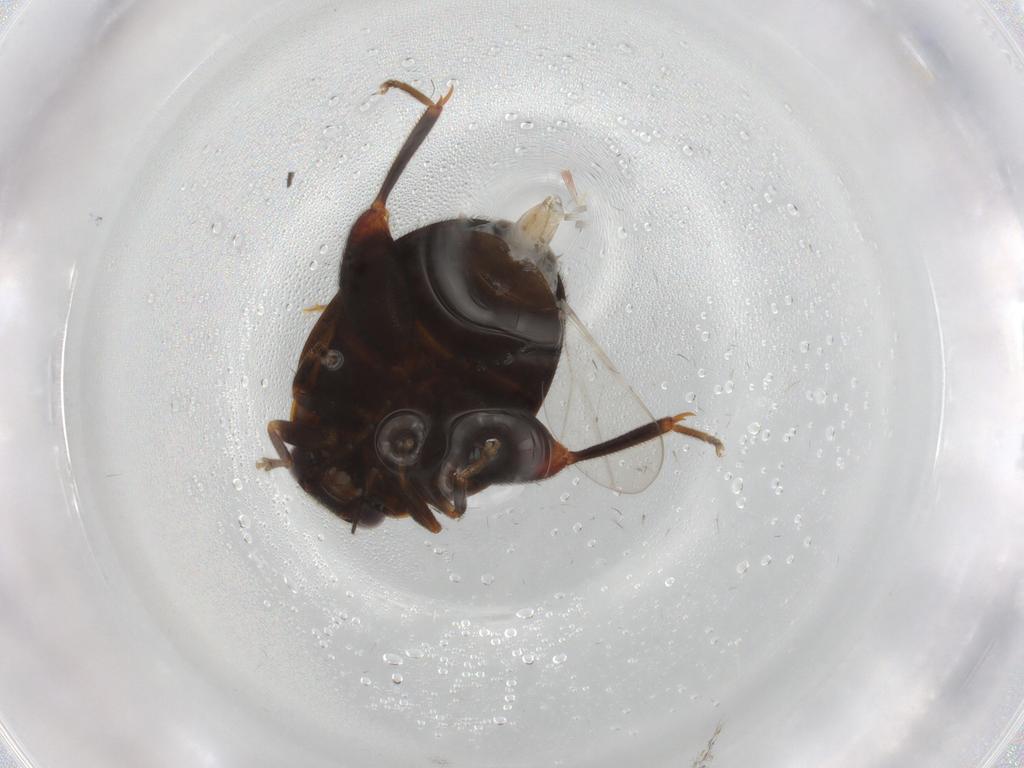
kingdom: Animalia
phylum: Arthropoda
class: Insecta
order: Coleoptera
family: Scirtidae
